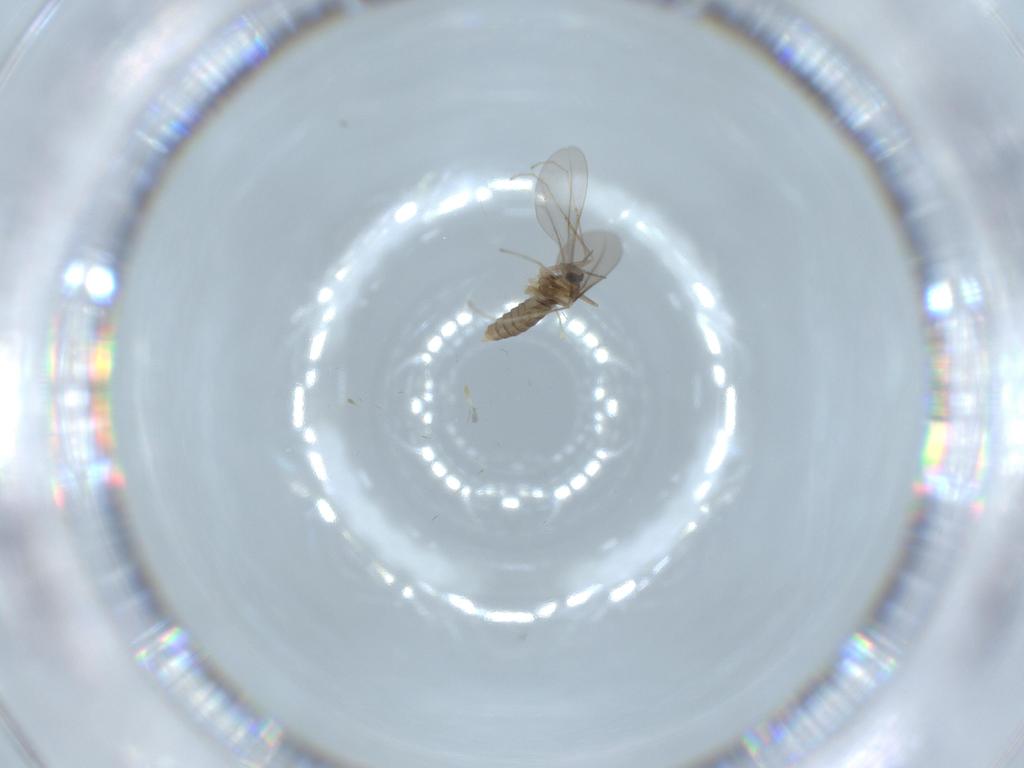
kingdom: Animalia
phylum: Arthropoda
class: Insecta
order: Diptera
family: Cecidomyiidae
